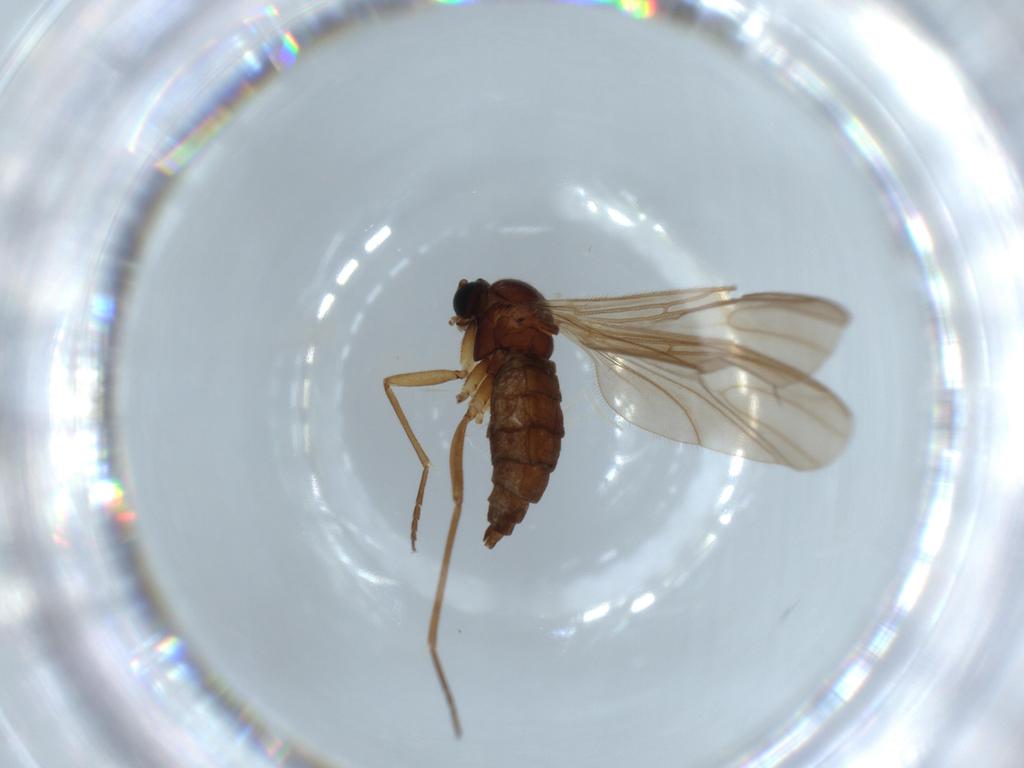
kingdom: Animalia
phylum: Arthropoda
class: Insecta
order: Diptera
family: Sciaridae
